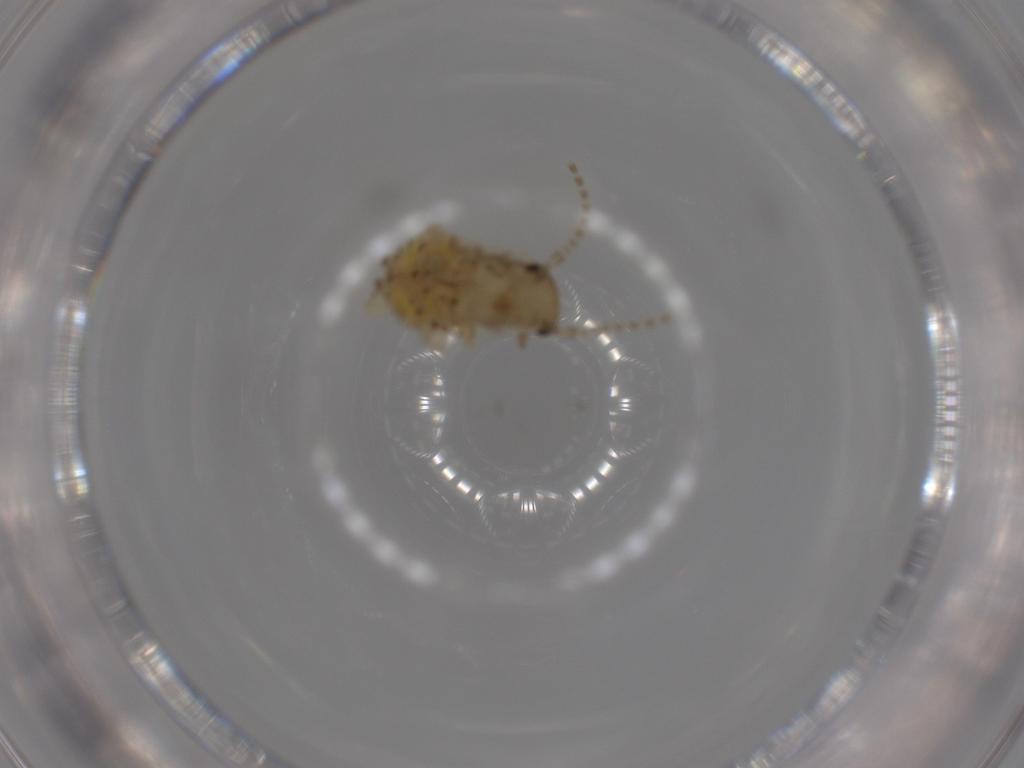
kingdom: Animalia
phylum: Arthropoda
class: Insecta
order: Blattodea
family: Ectobiidae
